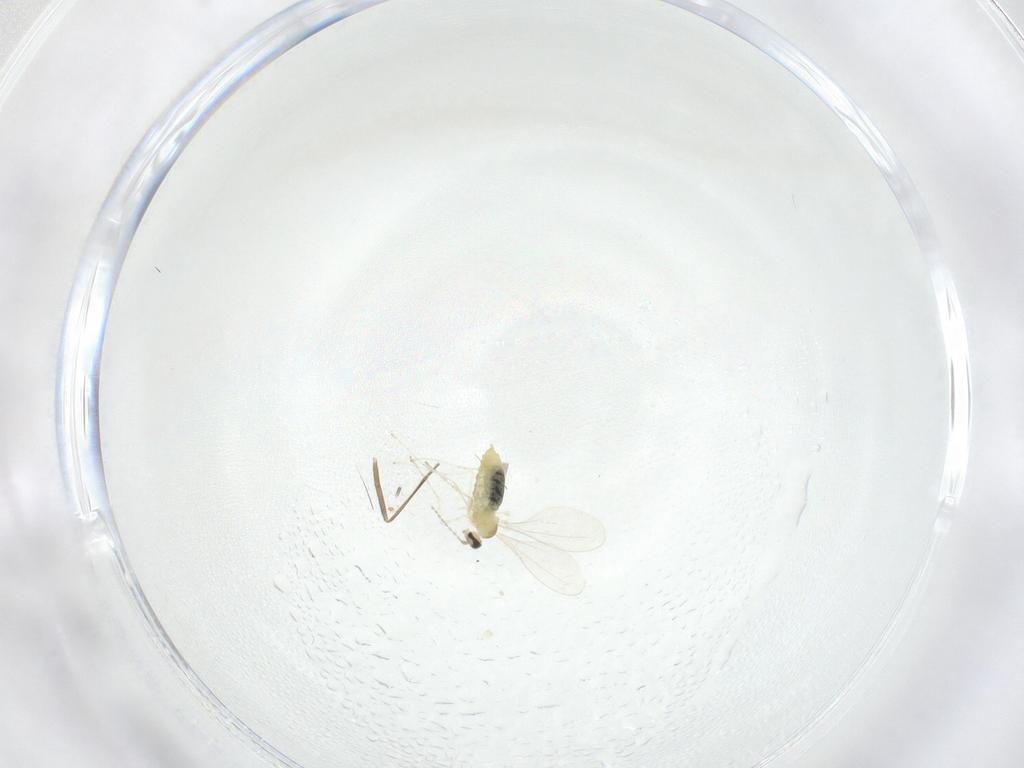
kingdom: Animalia
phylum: Arthropoda
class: Insecta
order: Diptera
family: Cecidomyiidae
